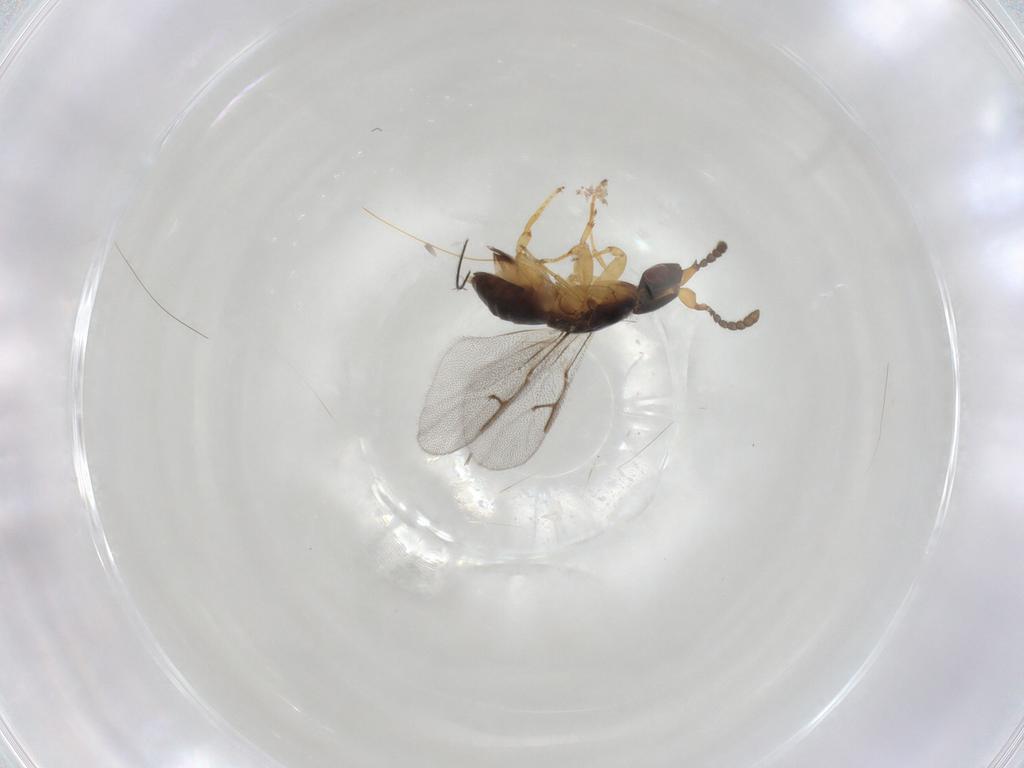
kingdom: Animalia
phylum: Arthropoda
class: Insecta
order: Hymenoptera
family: Agaonidae
